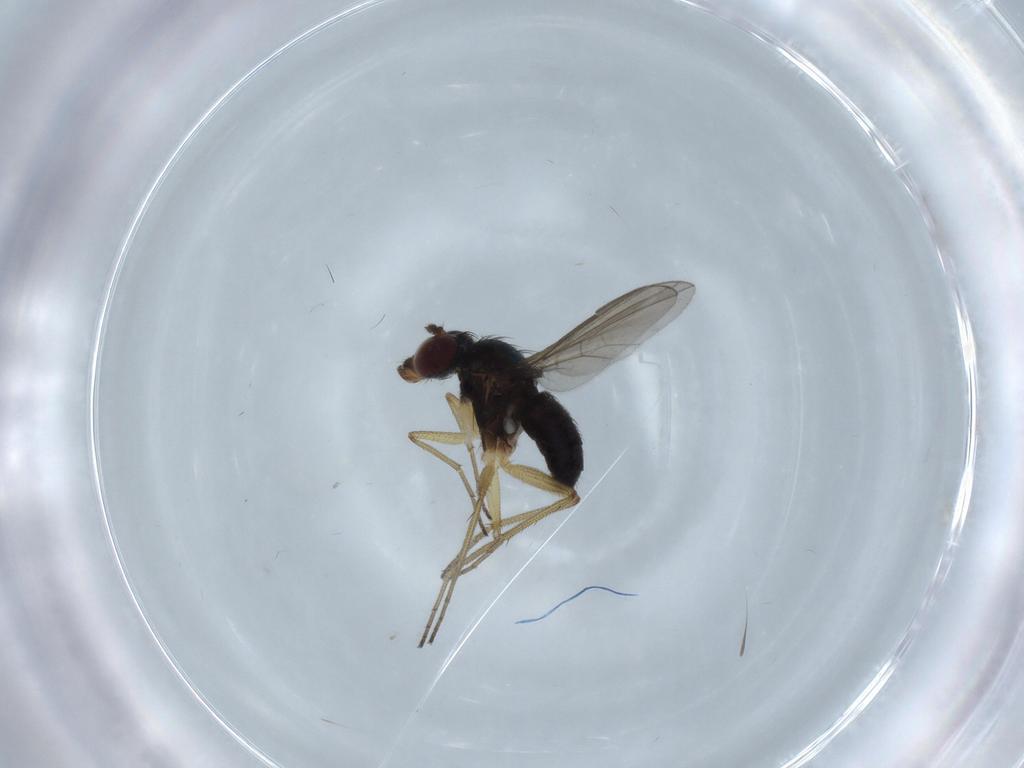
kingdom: Animalia
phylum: Arthropoda
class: Insecta
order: Diptera
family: Dolichopodidae
